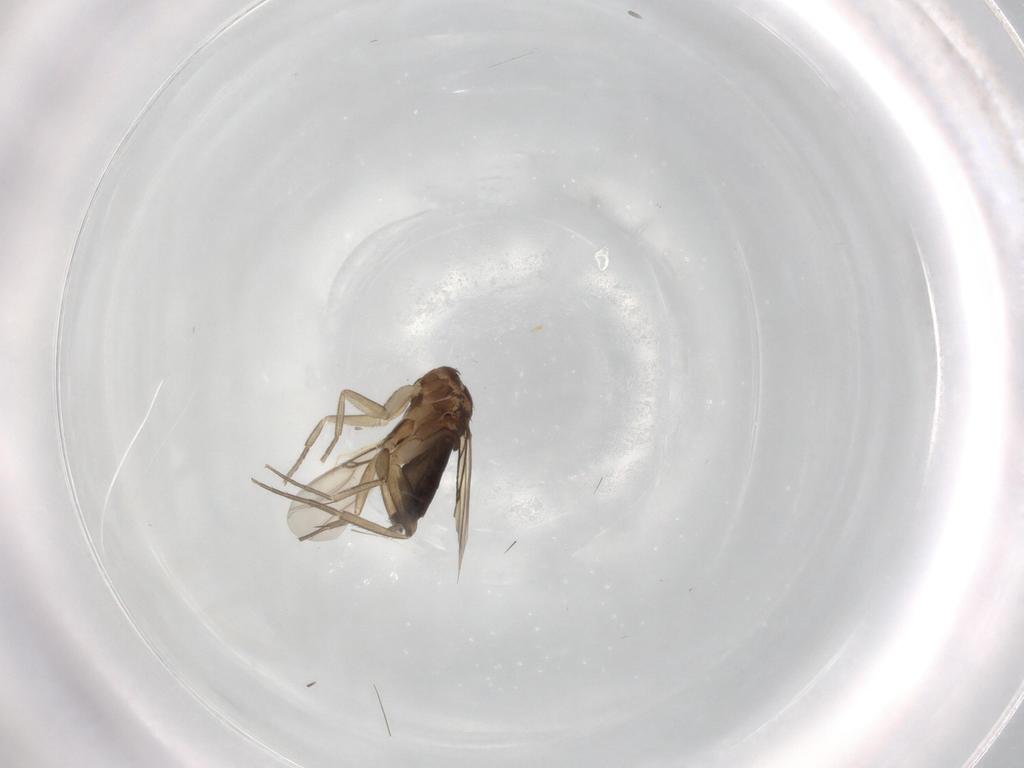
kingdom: Animalia
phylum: Arthropoda
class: Insecta
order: Diptera
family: Phoridae
